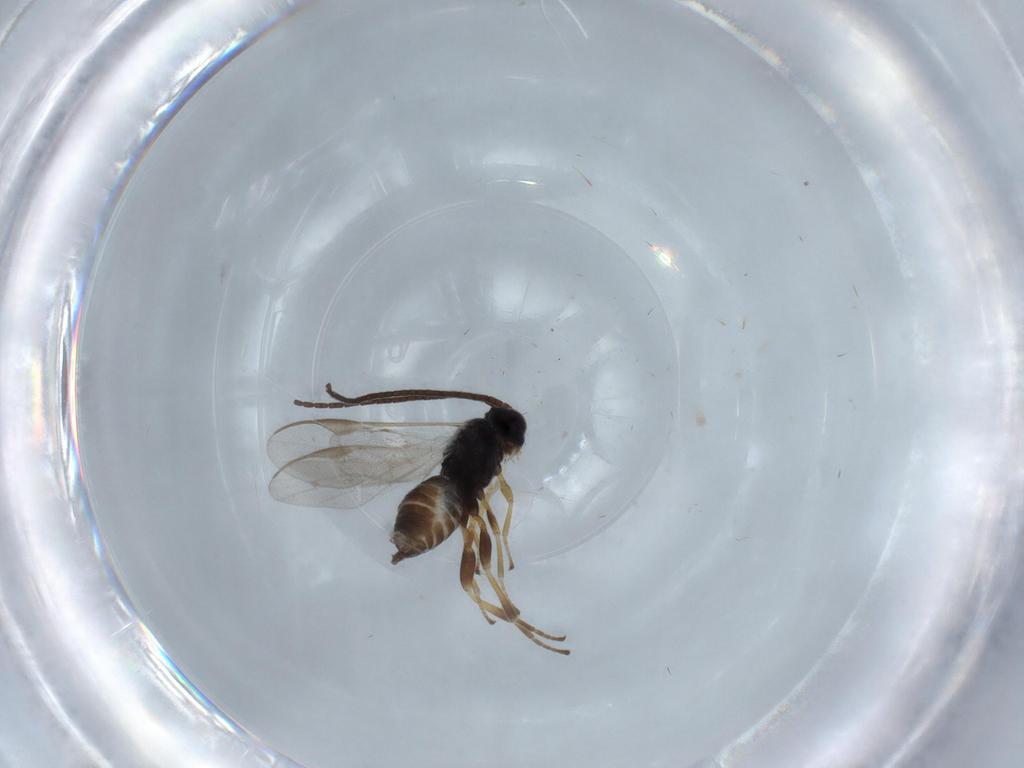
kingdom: Animalia
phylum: Arthropoda
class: Insecta
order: Hymenoptera
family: Braconidae
